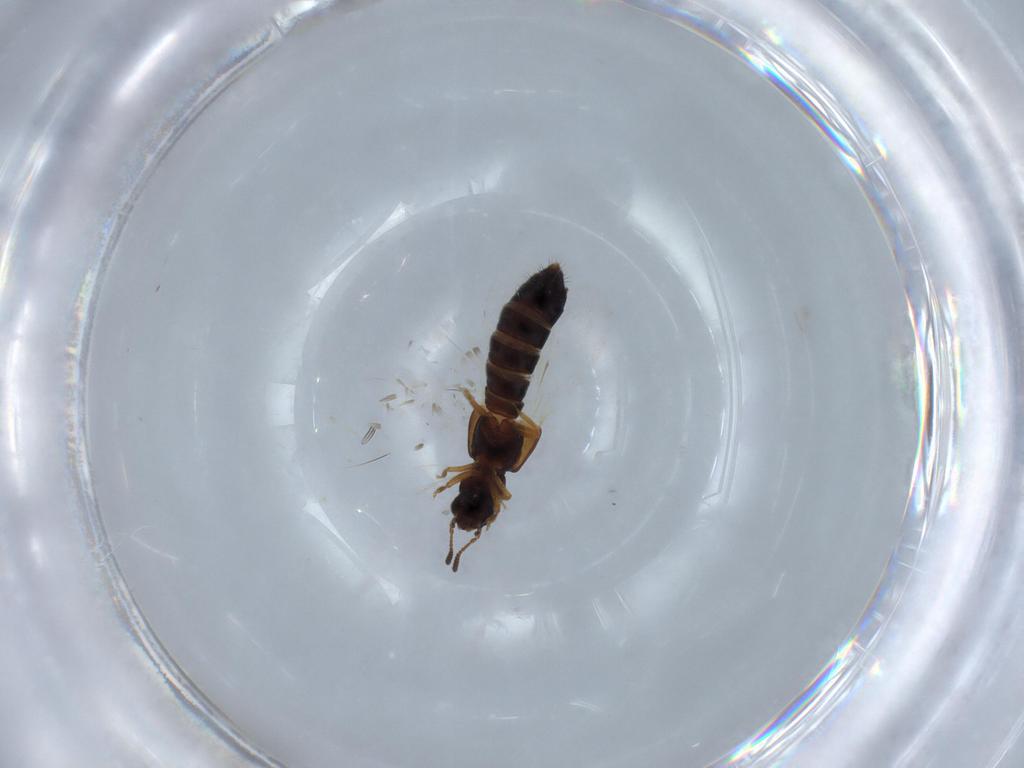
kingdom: Animalia
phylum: Arthropoda
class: Insecta
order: Coleoptera
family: Staphylinidae
